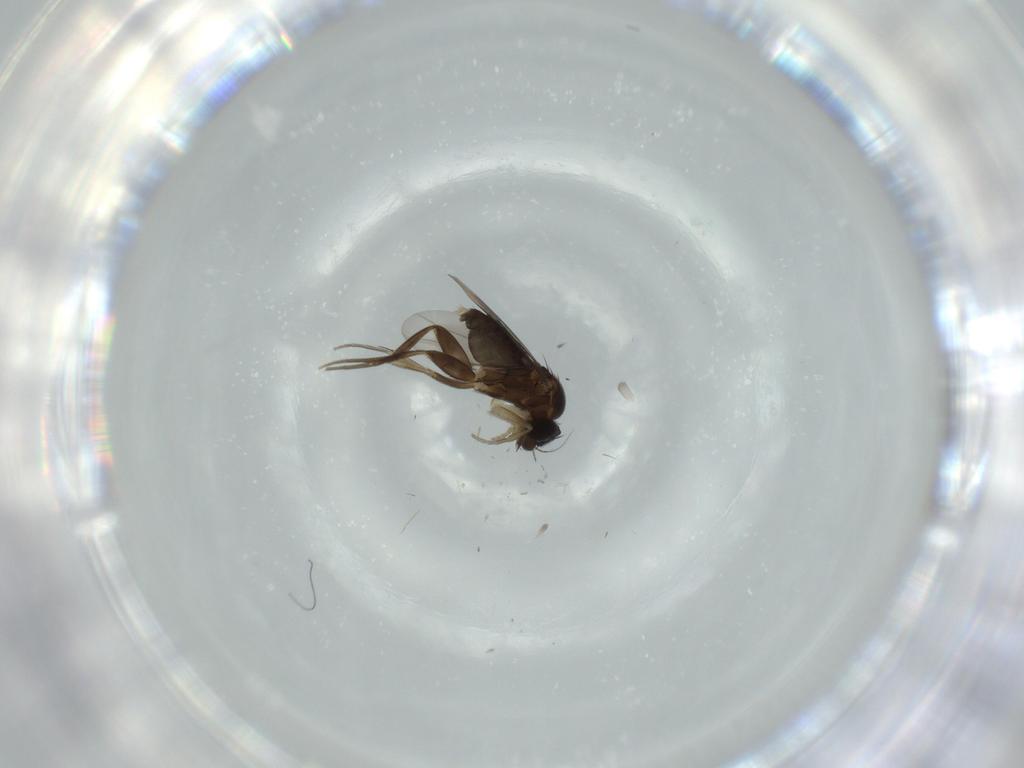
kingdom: Animalia
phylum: Arthropoda
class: Insecta
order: Diptera
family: Phoridae
